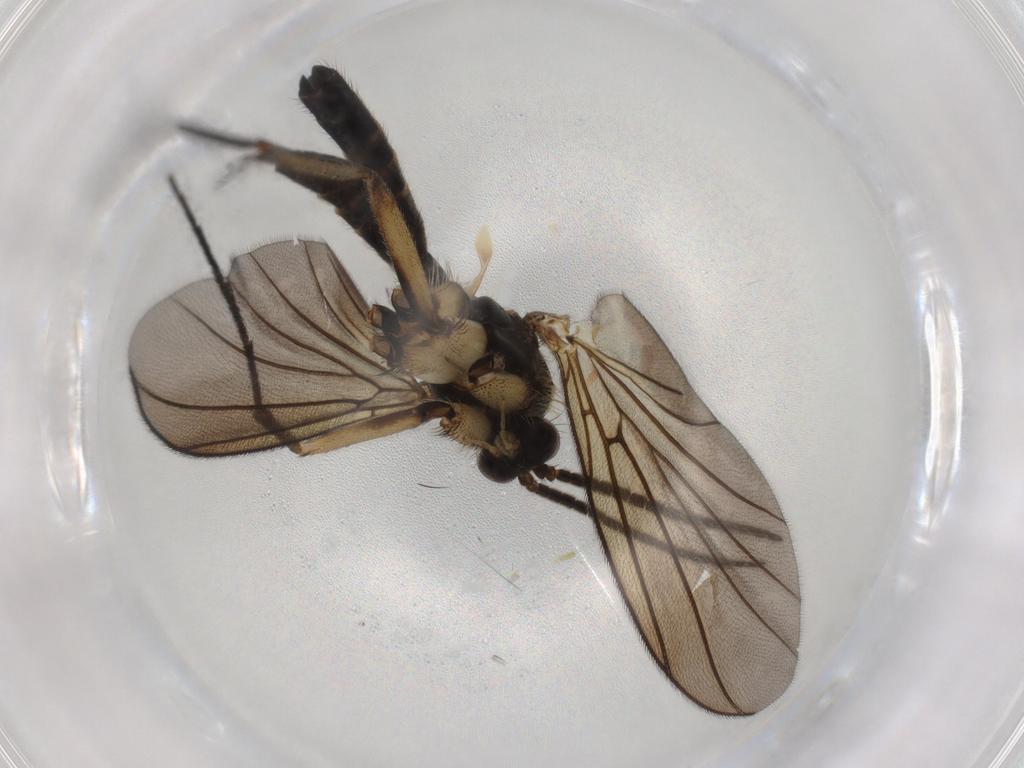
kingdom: Animalia
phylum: Arthropoda
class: Insecta
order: Diptera
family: Mycetophilidae
